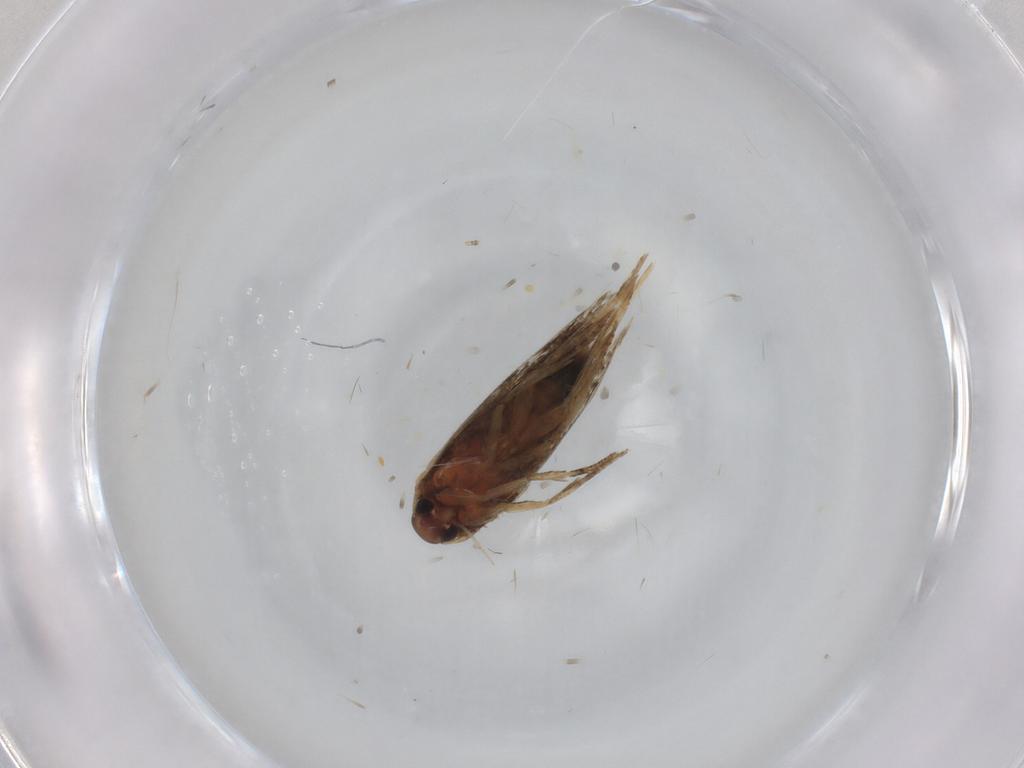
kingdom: Animalia
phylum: Arthropoda
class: Insecta
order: Lepidoptera
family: Cosmopterigidae
